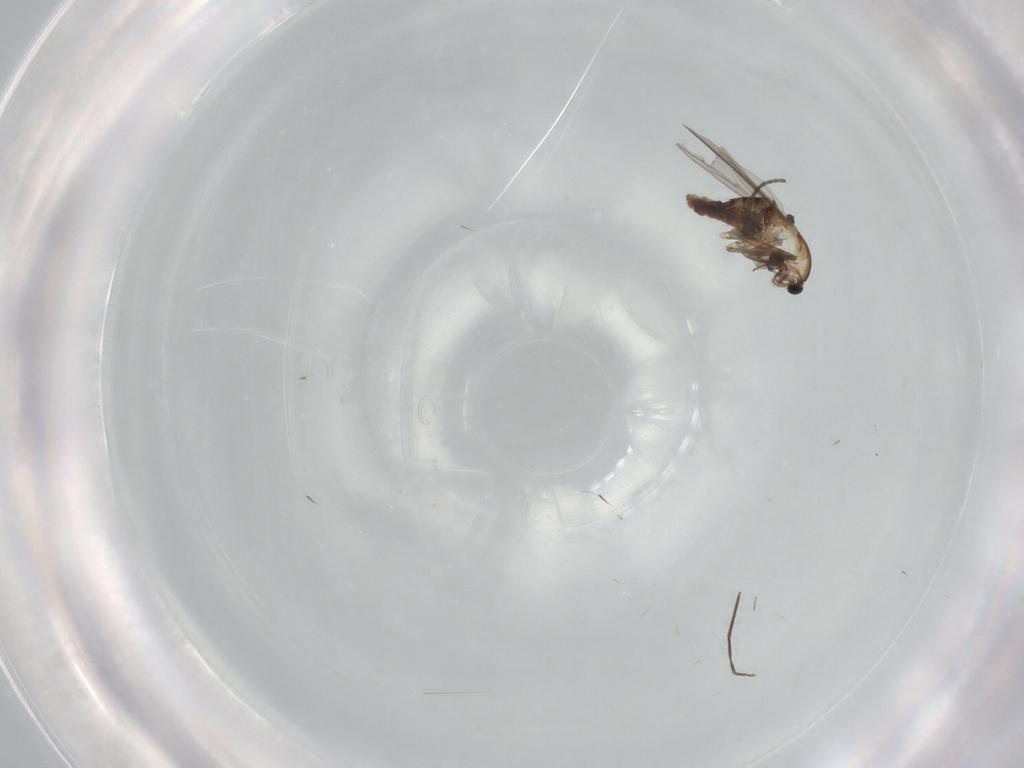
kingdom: Animalia
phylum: Arthropoda
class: Insecta
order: Diptera
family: Chironomidae
